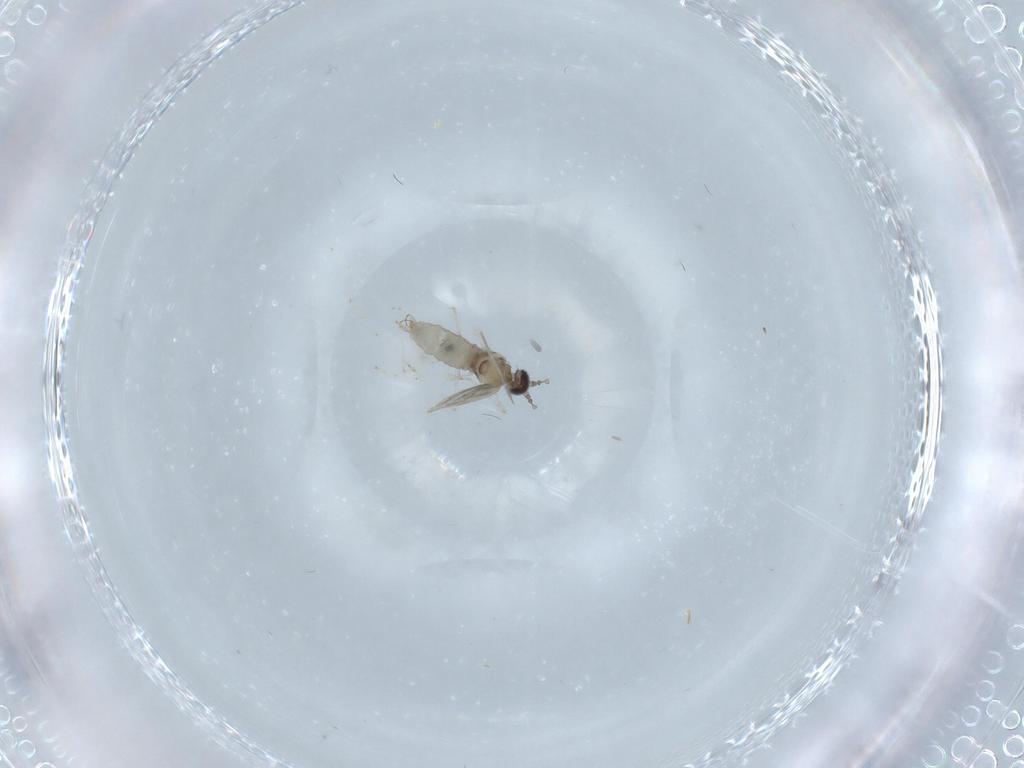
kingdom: Animalia
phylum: Arthropoda
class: Insecta
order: Diptera
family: Cecidomyiidae
